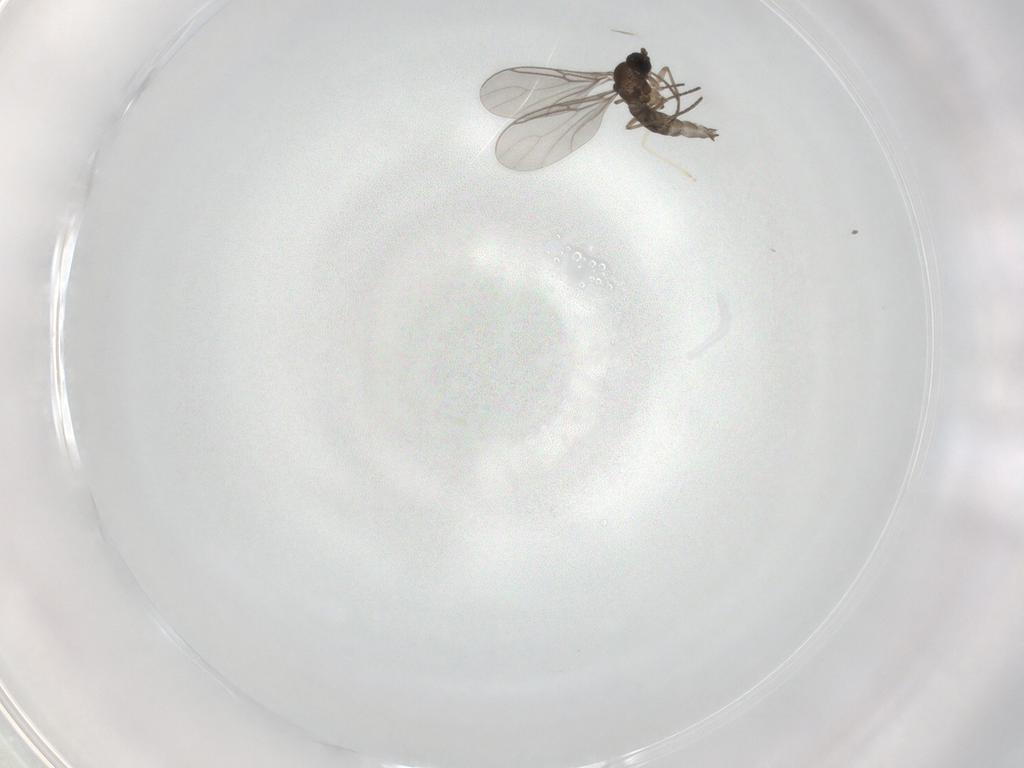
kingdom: Animalia
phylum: Arthropoda
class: Insecta
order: Diptera
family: Sciaridae
